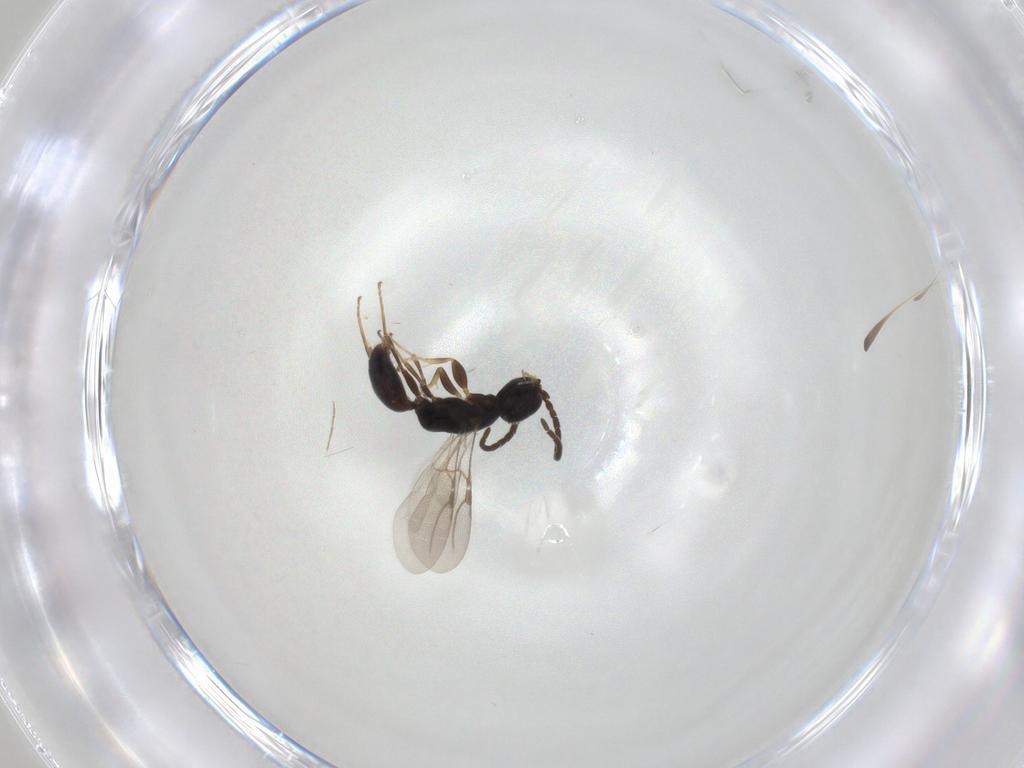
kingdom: Animalia
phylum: Arthropoda
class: Insecta
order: Hymenoptera
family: Bethylidae
